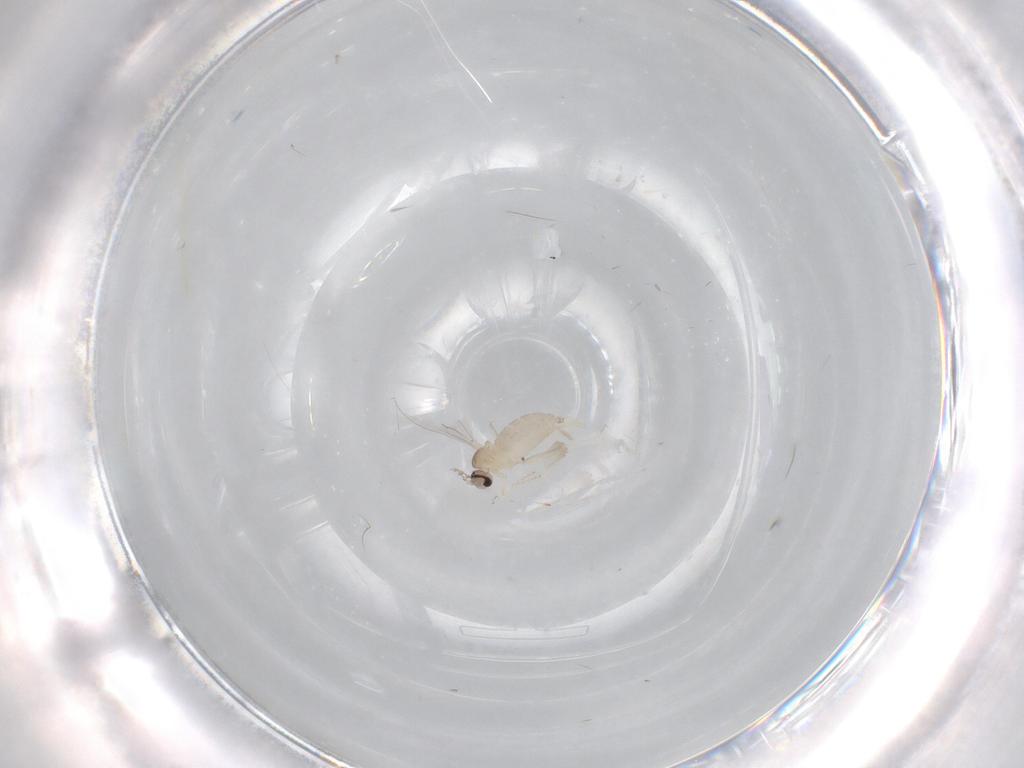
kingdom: Animalia
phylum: Arthropoda
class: Insecta
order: Diptera
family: Cecidomyiidae
